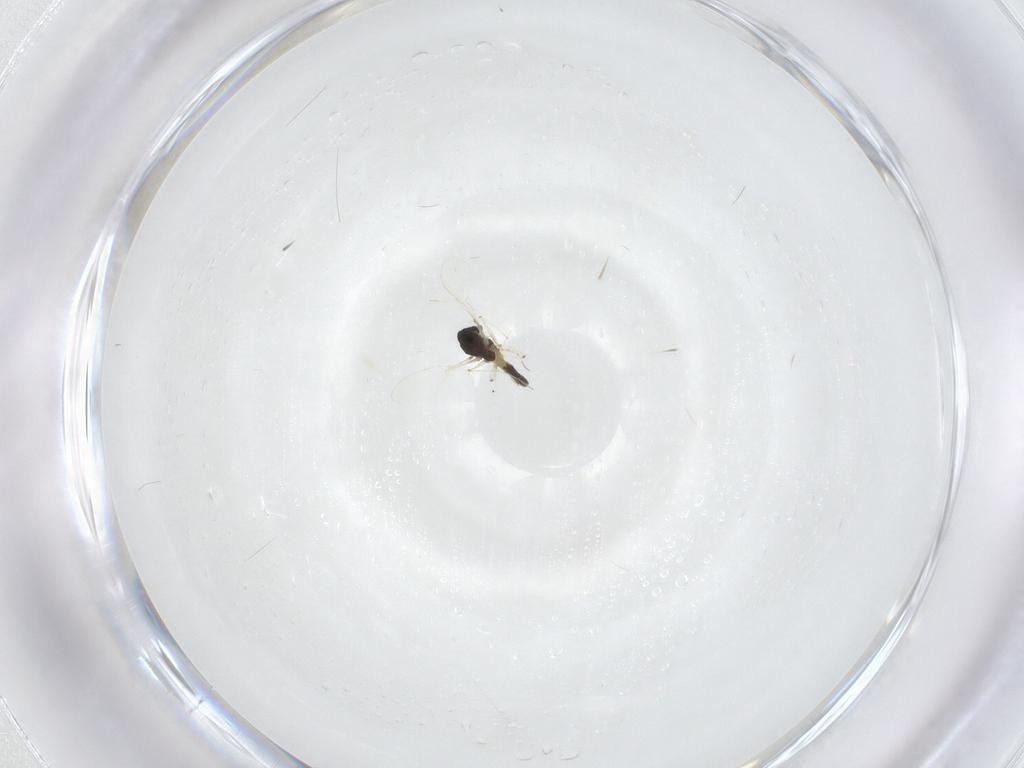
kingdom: Animalia
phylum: Arthropoda
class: Insecta
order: Diptera
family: Chironomidae
